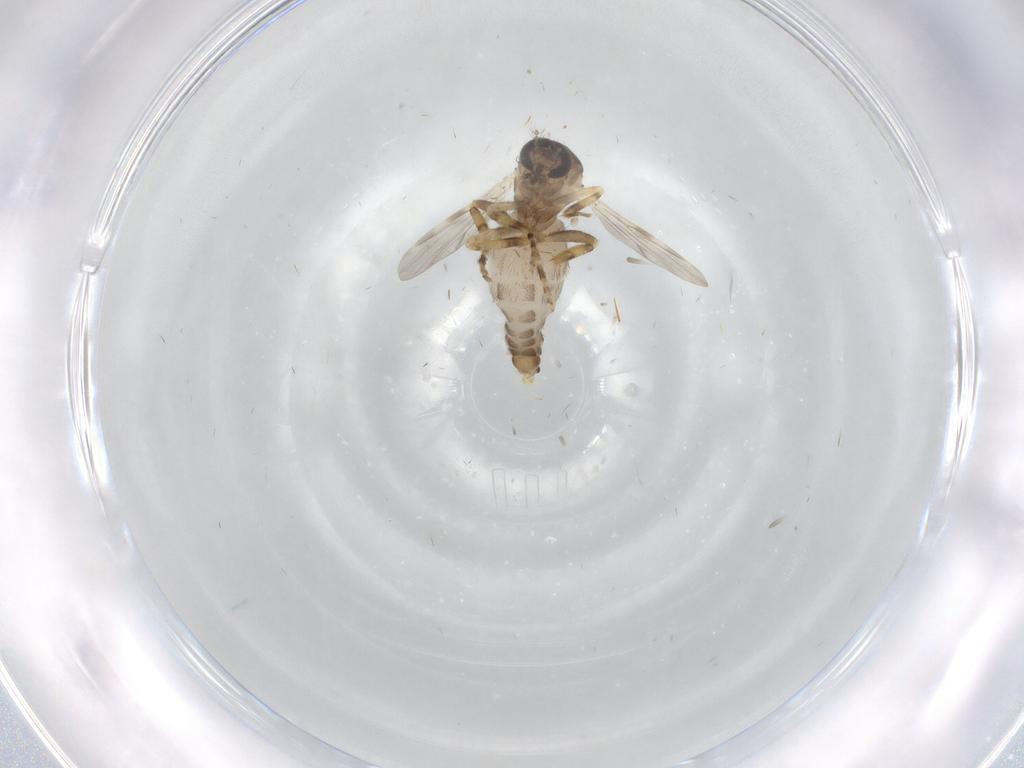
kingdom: Animalia
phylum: Arthropoda
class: Insecta
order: Diptera
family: Ceratopogonidae
